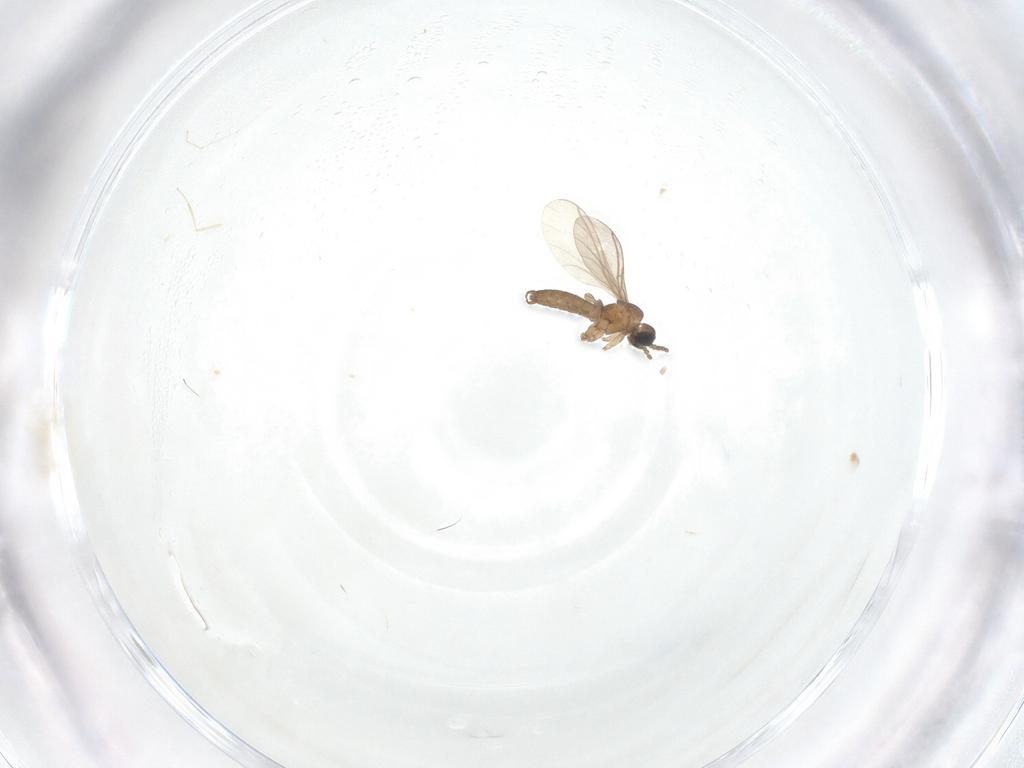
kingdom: Animalia
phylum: Arthropoda
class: Insecta
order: Diptera
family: Sciaridae
